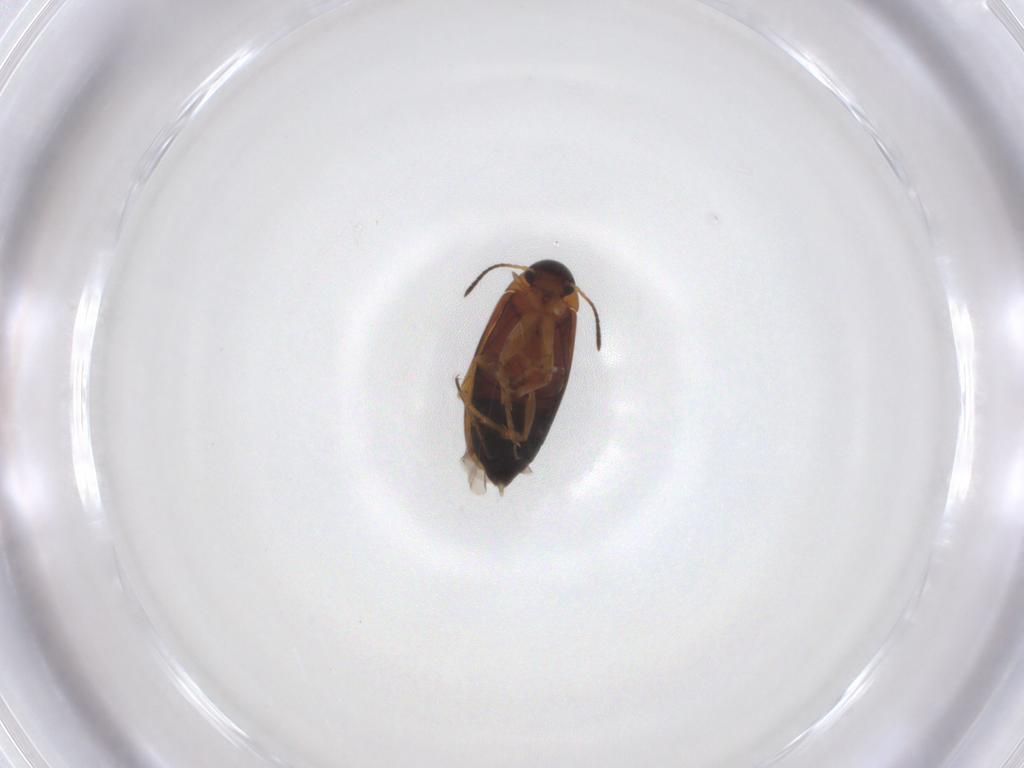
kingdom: Animalia
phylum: Arthropoda
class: Insecta
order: Coleoptera
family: Scraptiidae
